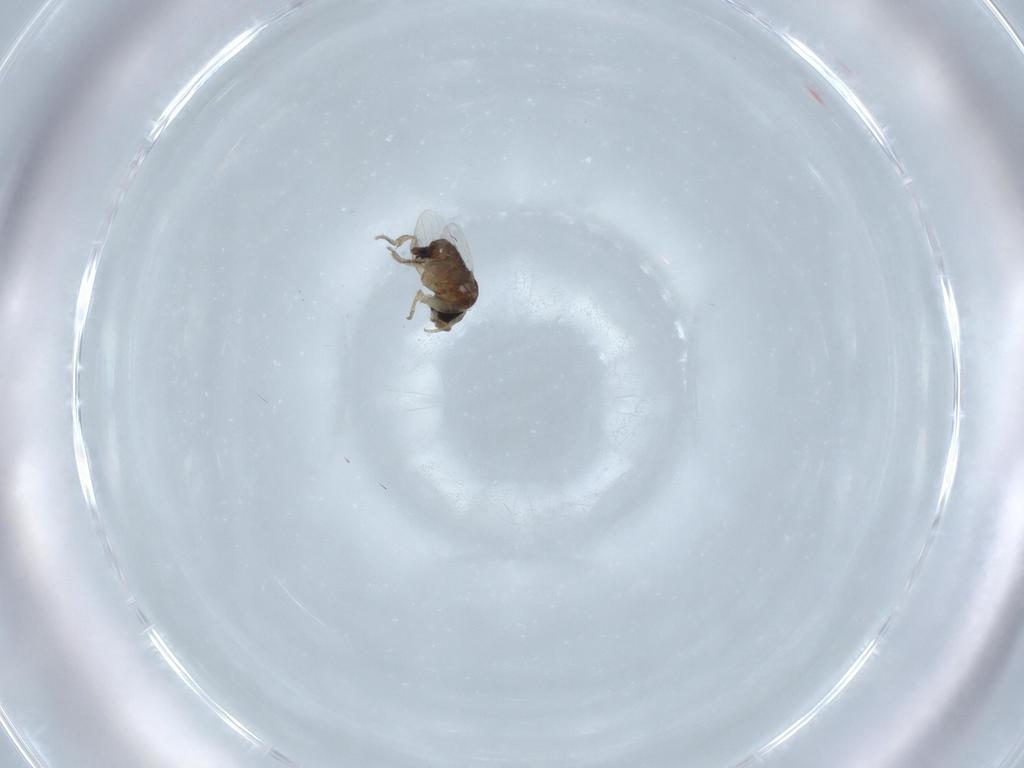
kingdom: Animalia
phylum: Arthropoda
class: Insecta
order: Diptera
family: Phoridae
